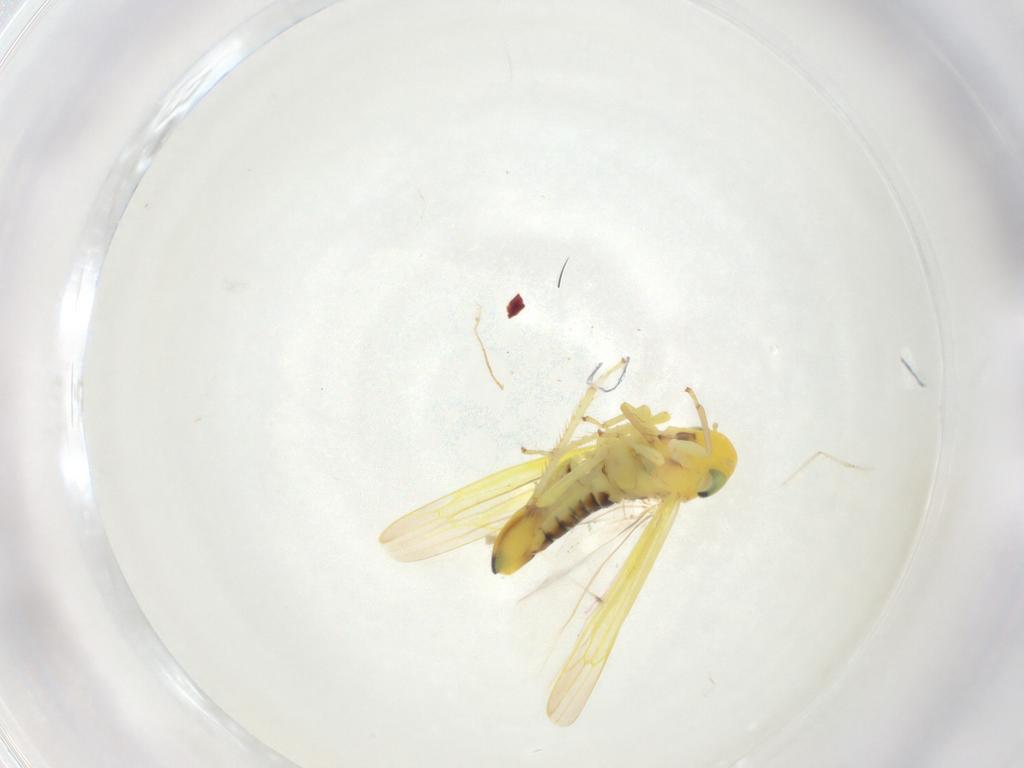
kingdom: Animalia
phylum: Arthropoda
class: Insecta
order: Hemiptera
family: Cicadellidae
